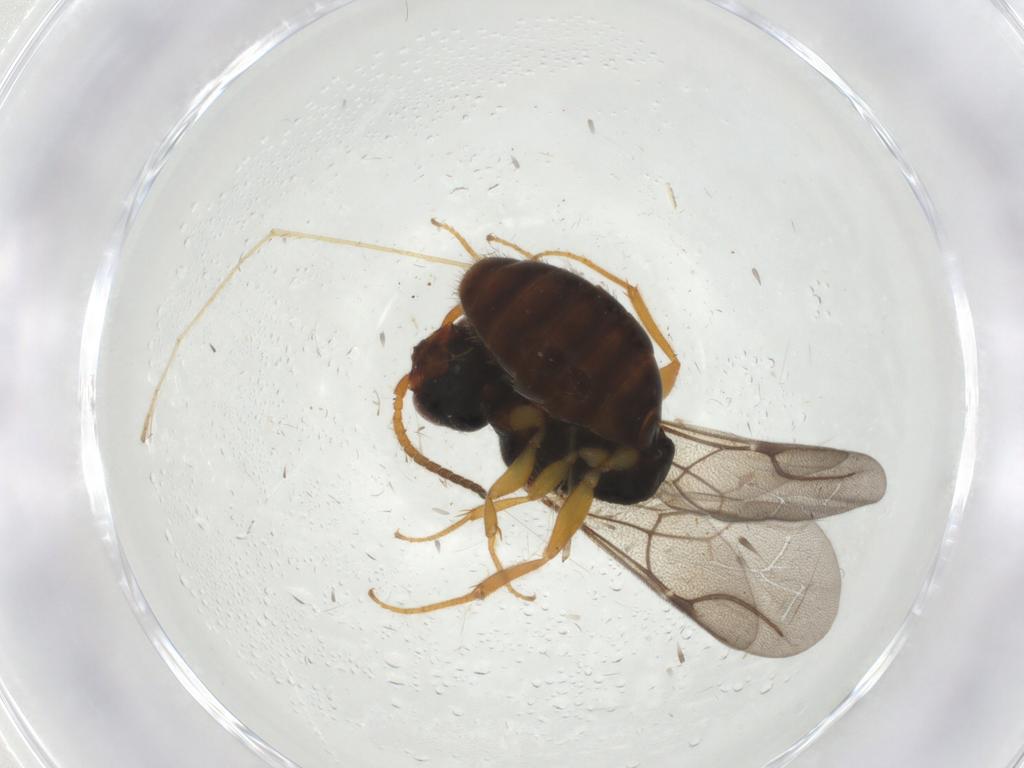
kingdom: Animalia
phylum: Arthropoda
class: Insecta
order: Hymenoptera
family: Bethylidae
